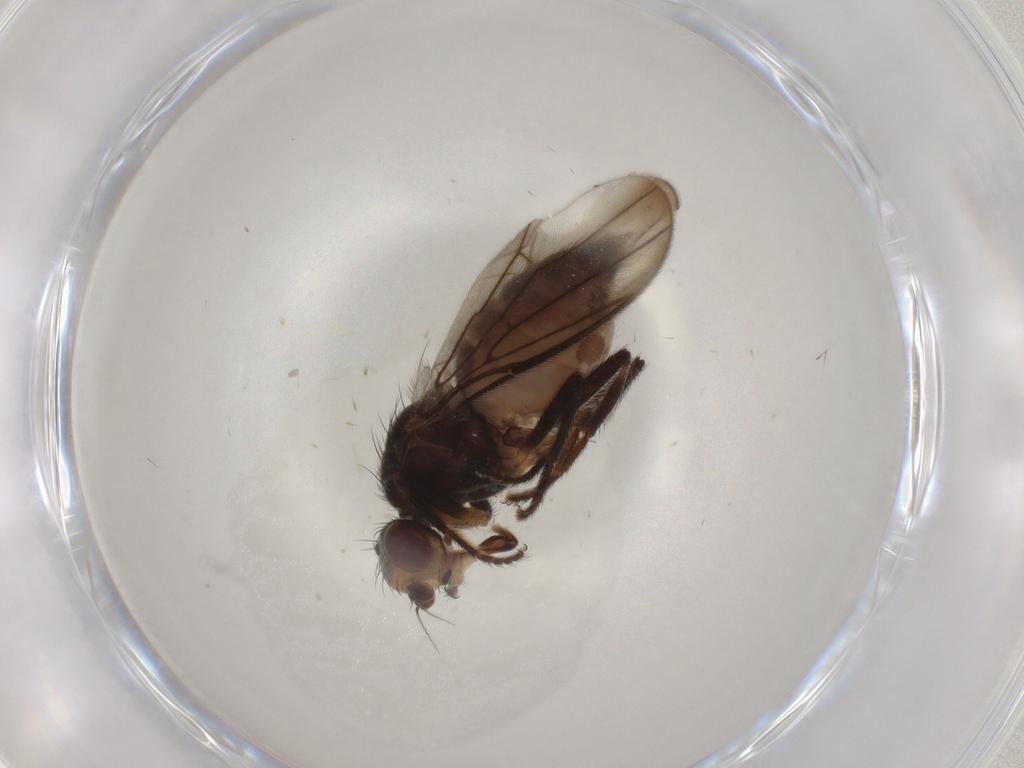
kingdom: Animalia
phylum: Arthropoda
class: Insecta
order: Diptera
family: Chloropidae
